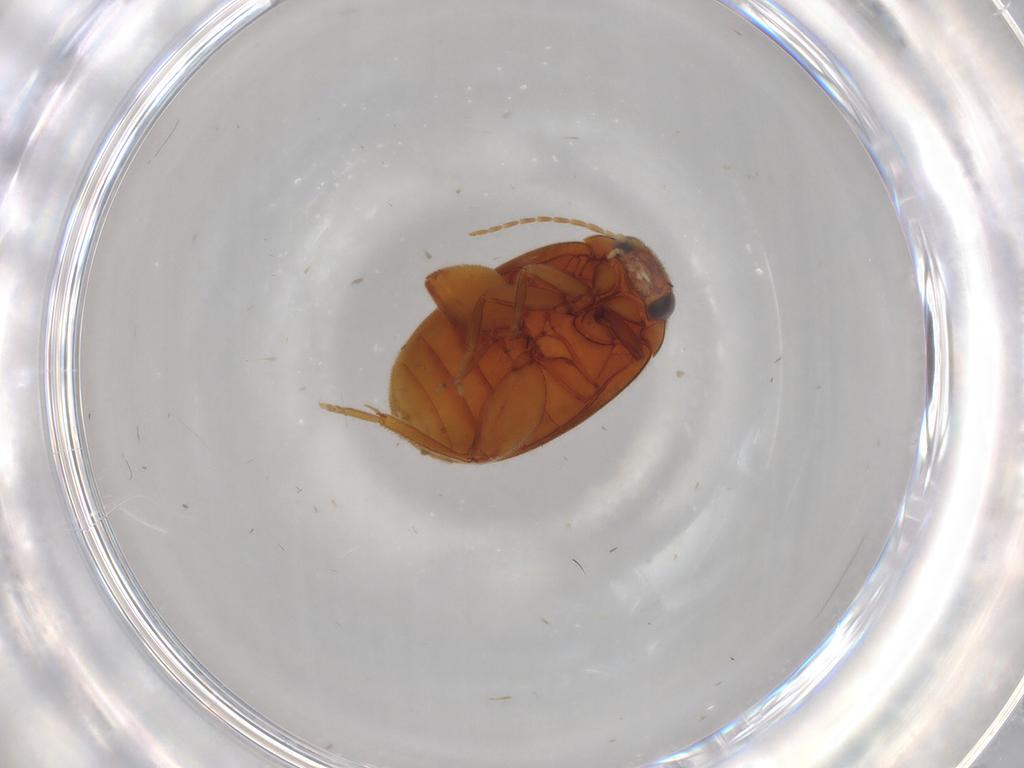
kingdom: Animalia
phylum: Arthropoda
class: Insecta
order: Coleoptera
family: Scirtidae
